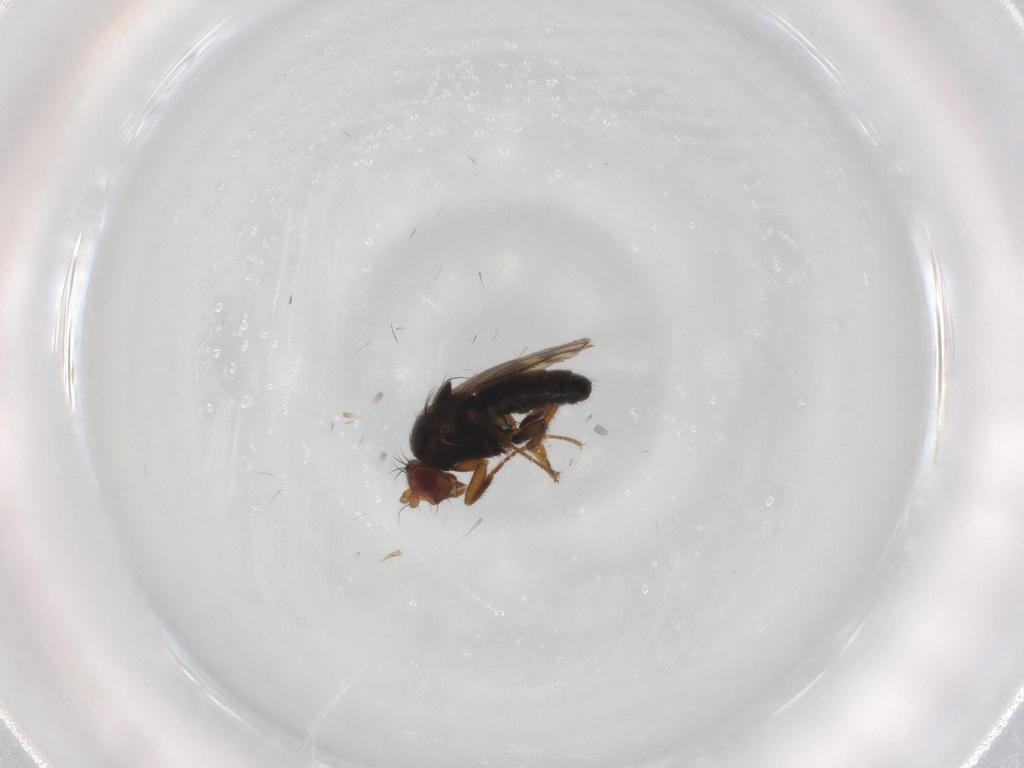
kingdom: Animalia
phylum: Arthropoda
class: Insecta
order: Diptera
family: Sphaeroceridae
